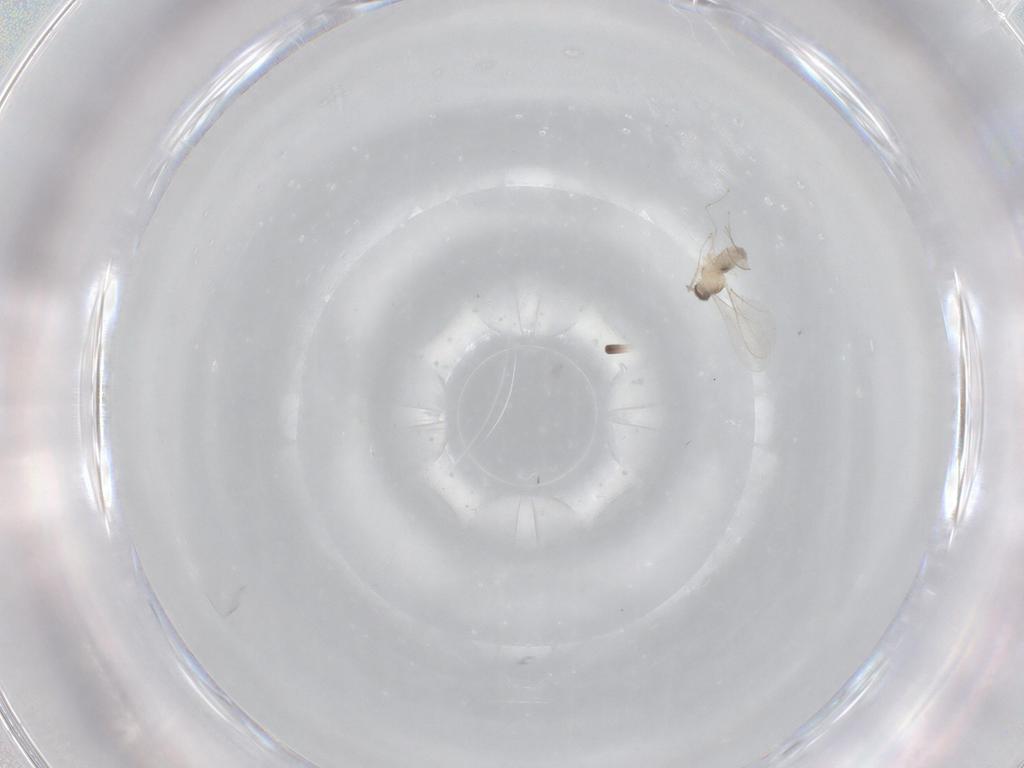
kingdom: Animalia
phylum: Arthropoda
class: Insecta
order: Diptera
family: Cecidomyiidae
